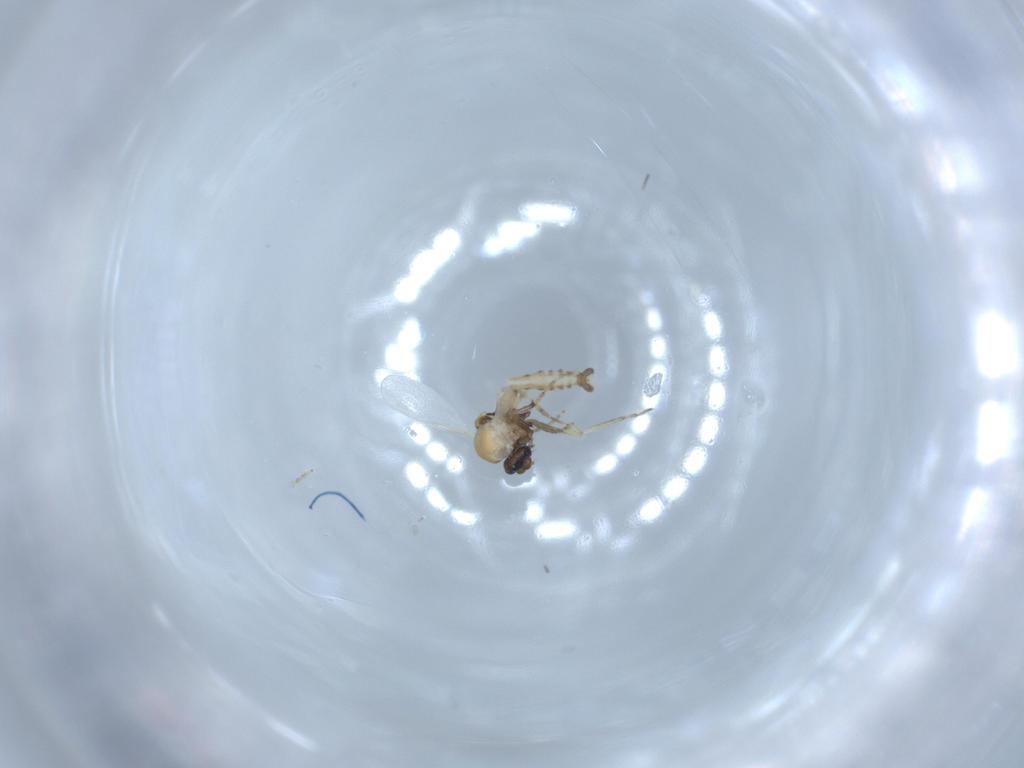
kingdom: Animalia
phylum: Arthropoda
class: Insecta
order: Diptera
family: Ceratopogonidae
